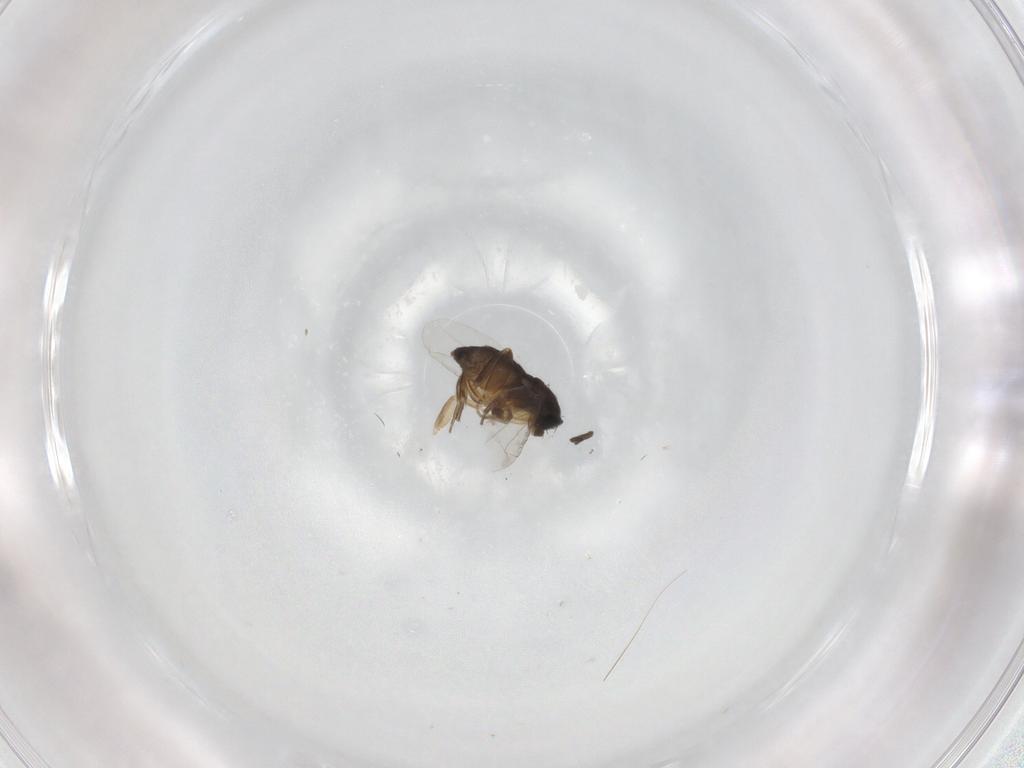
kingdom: Animalia
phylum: Arthropoda
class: Insecta
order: Diptera
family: Phoridae
